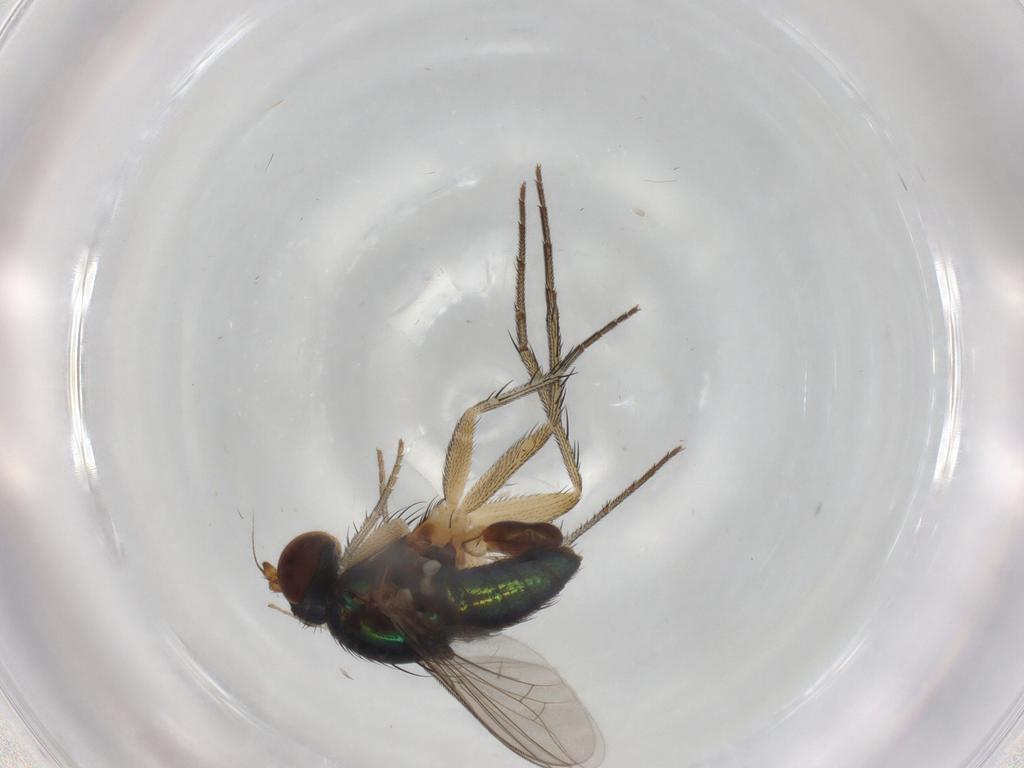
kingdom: Animalia
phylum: Arthropoda
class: Insecta
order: Diptera
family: Dolichopodidae
